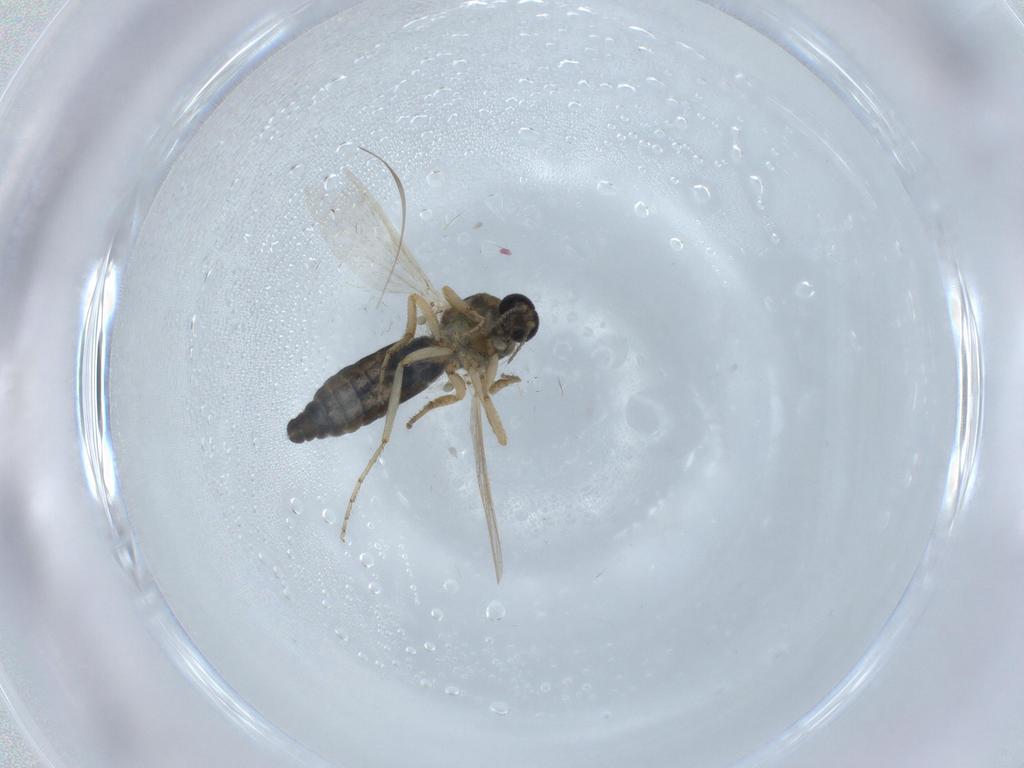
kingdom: Animalia
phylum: Arthropoda
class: Insecta
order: Diptera
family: Ceratopogonidae
